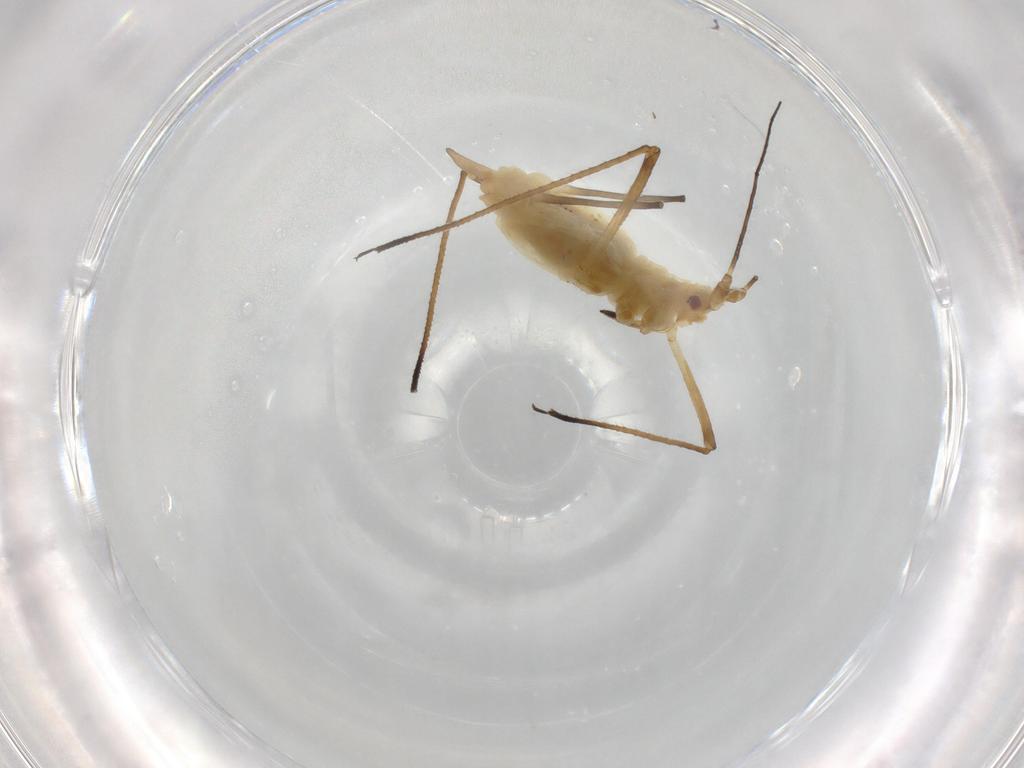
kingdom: Animalia
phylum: Arthropoda
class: Insecta
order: Hemiptera
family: Aphididae
